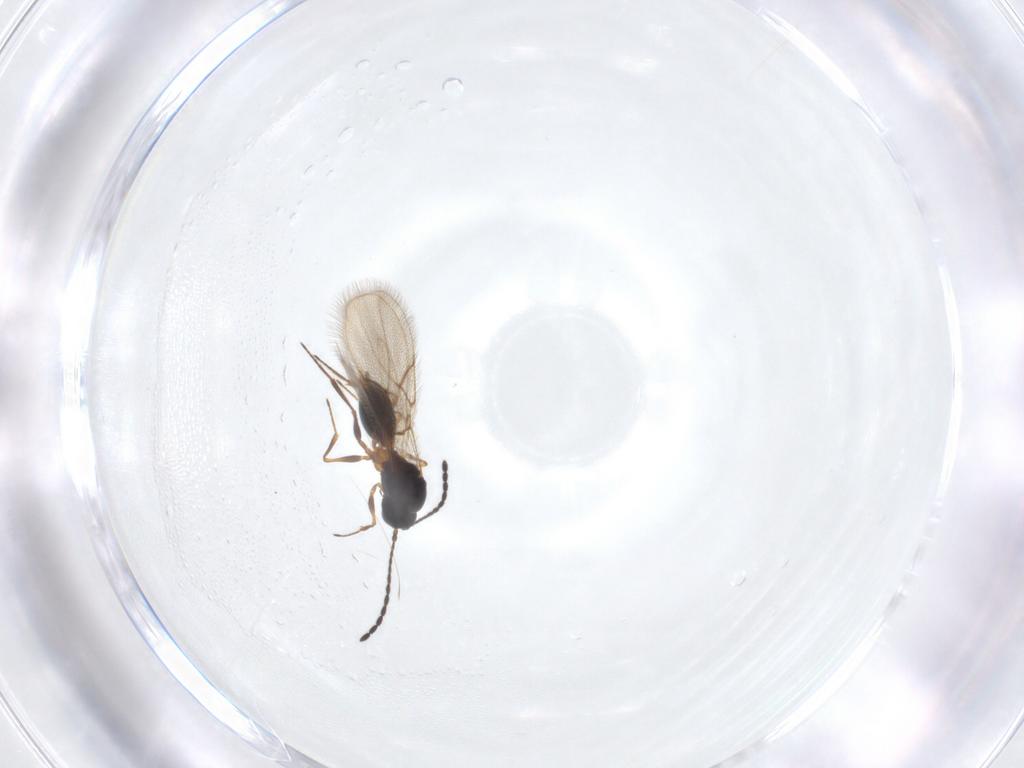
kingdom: Animalia
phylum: Arthropoda
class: Insecta
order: Hymenoptera
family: Figitidae
